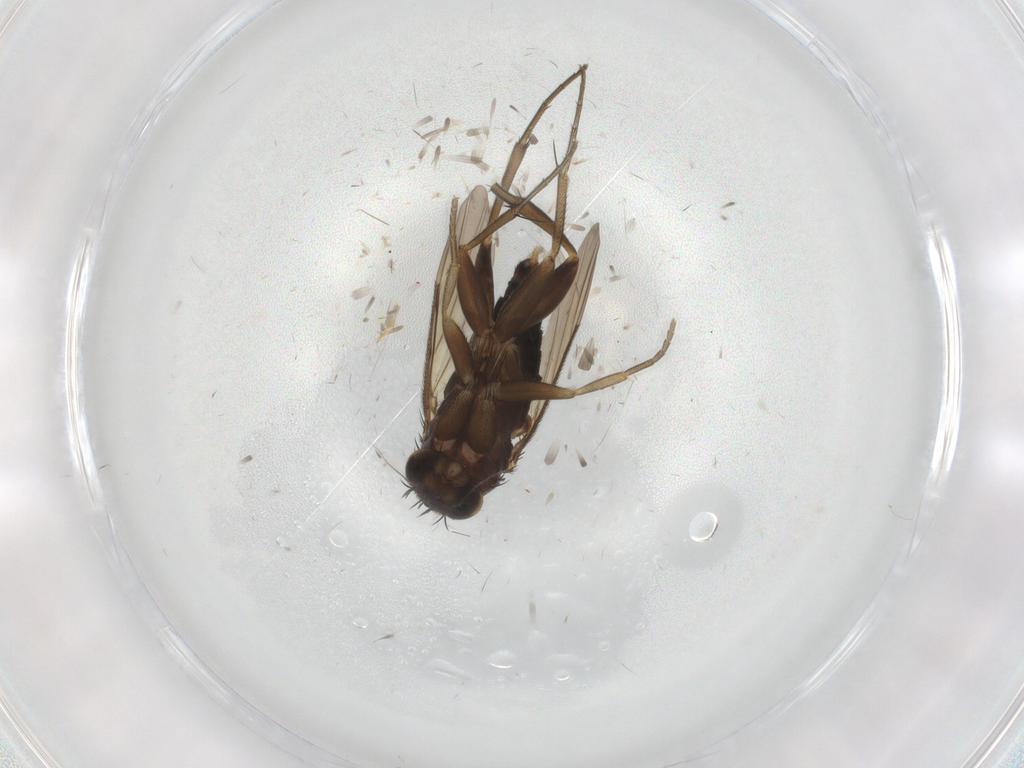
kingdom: Animalia
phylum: Arthropoda
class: Insecta
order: Diptera
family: Phoridae
